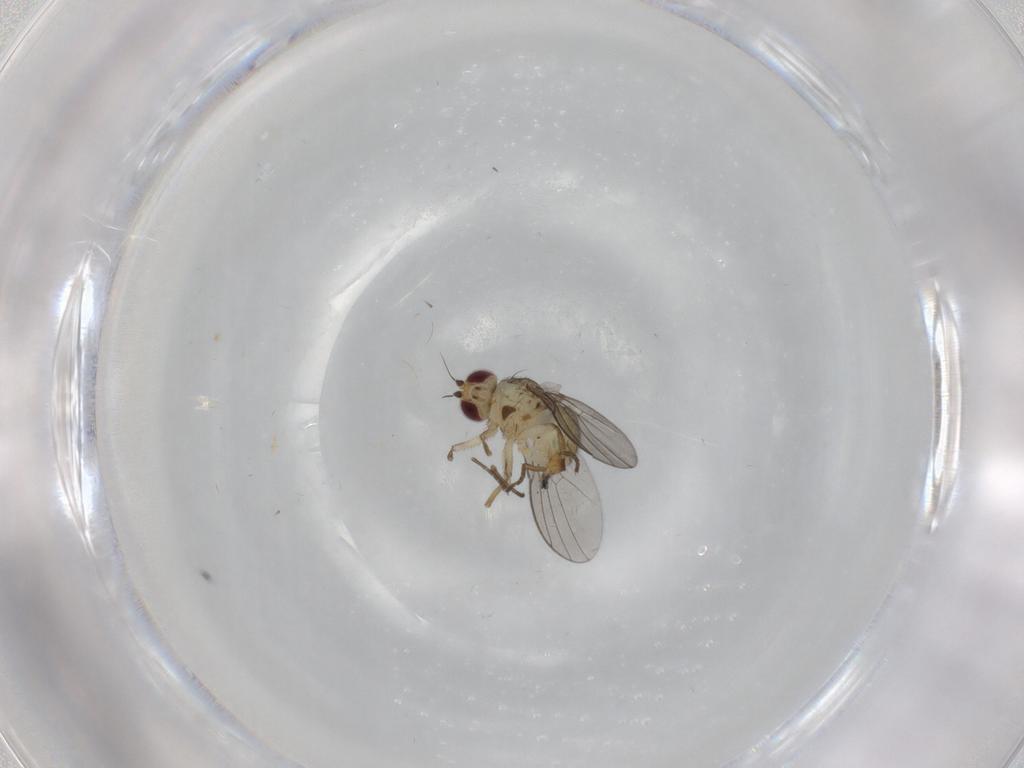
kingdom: Animalia
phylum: Arthropoda
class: Insecta
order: Diptera
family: Agromyzidae
